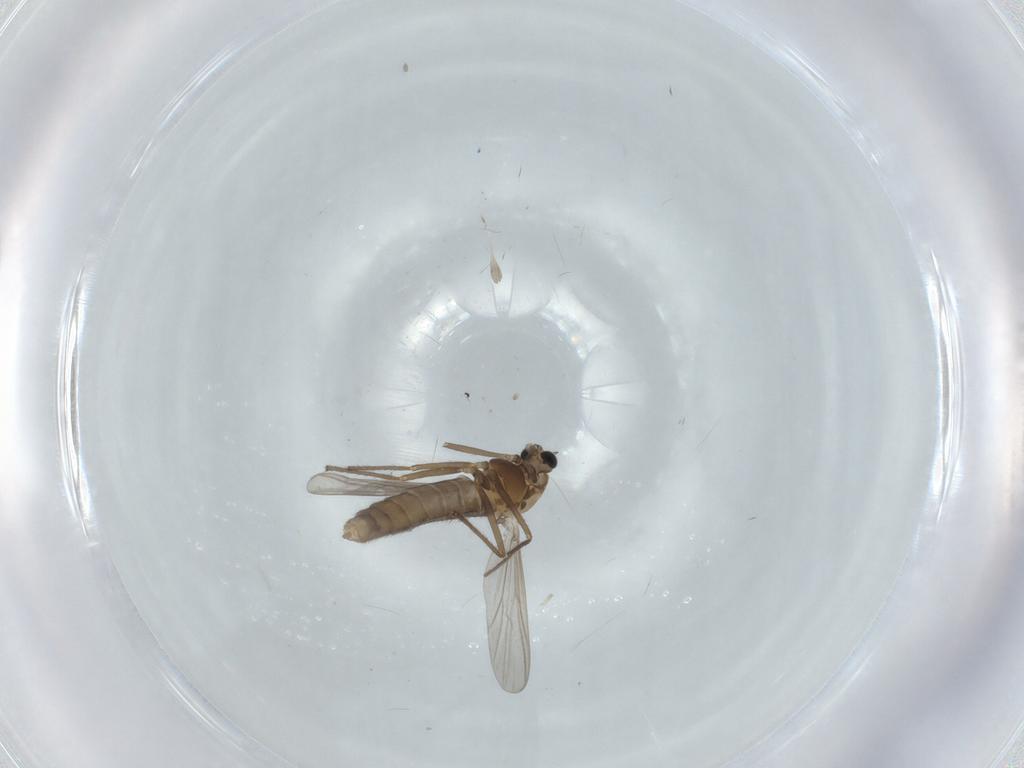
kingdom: Animalia
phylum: Arthropoda
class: Insecta
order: Diptera
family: Chironomidae
